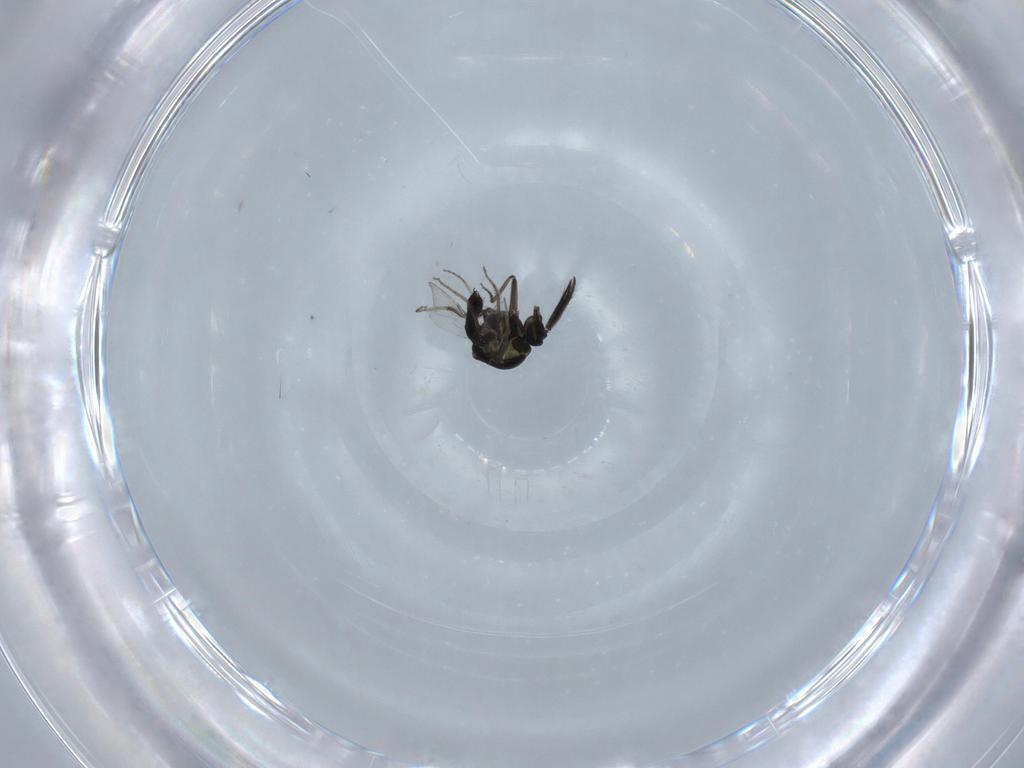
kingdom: Animalia
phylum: Arthropoda
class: Insecta
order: Diptera
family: Ceratopogonidae
